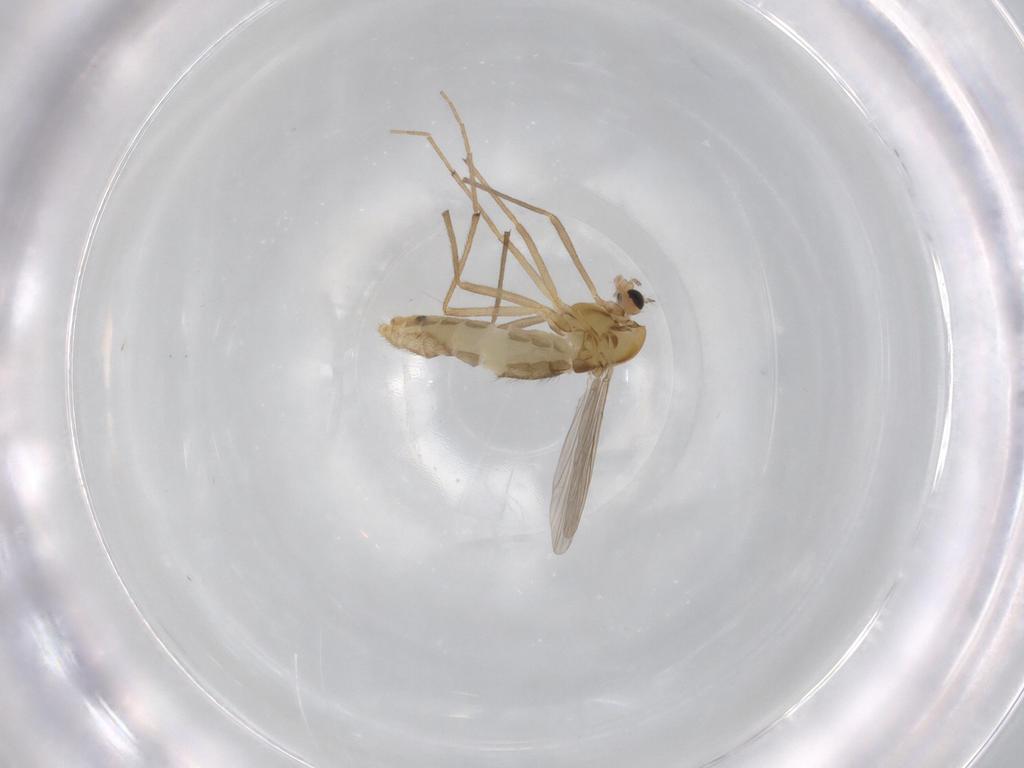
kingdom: Animalia
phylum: Arthropoda
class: Insecta
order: Diptera
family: Chironomidae
